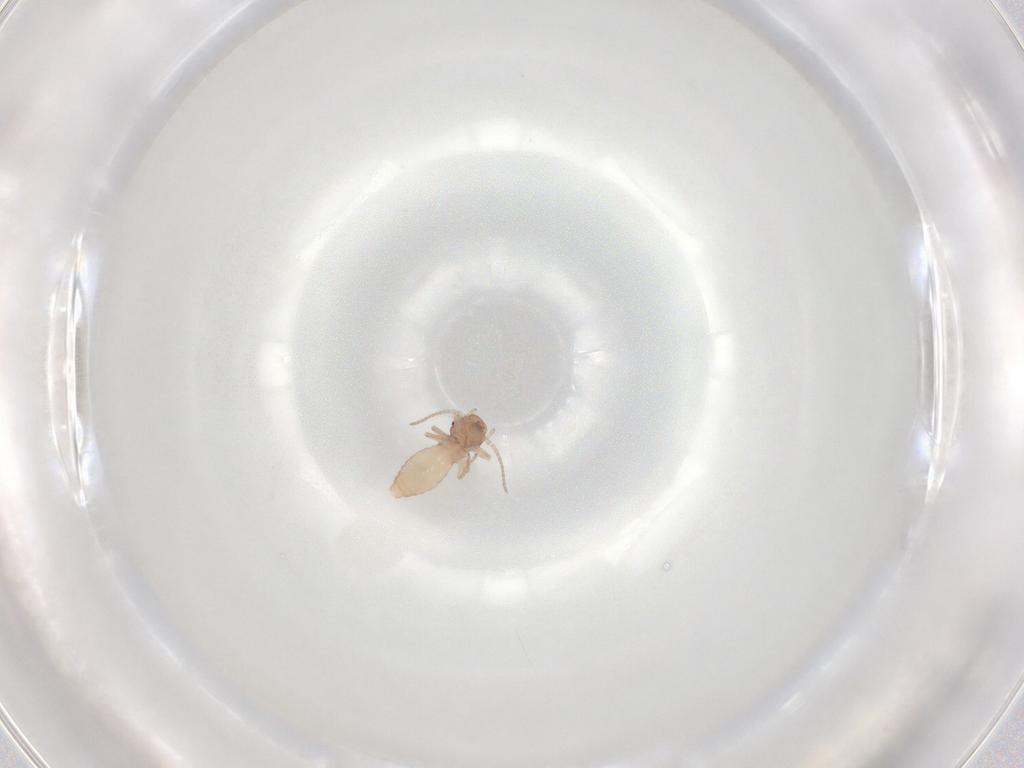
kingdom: Animalia
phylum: Arthropoda
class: Insecta
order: Psocodea
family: Caeciliusidae
